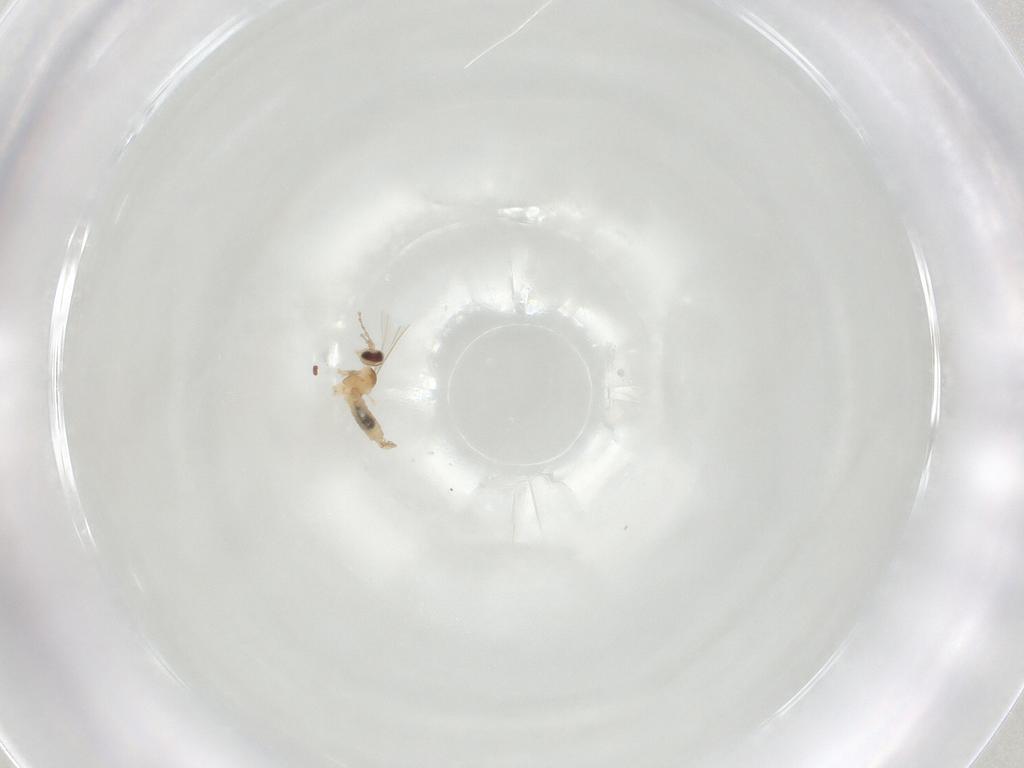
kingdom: Animalia
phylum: Arthropoda
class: Insecta
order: Diptera
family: Cecidomyiidae
